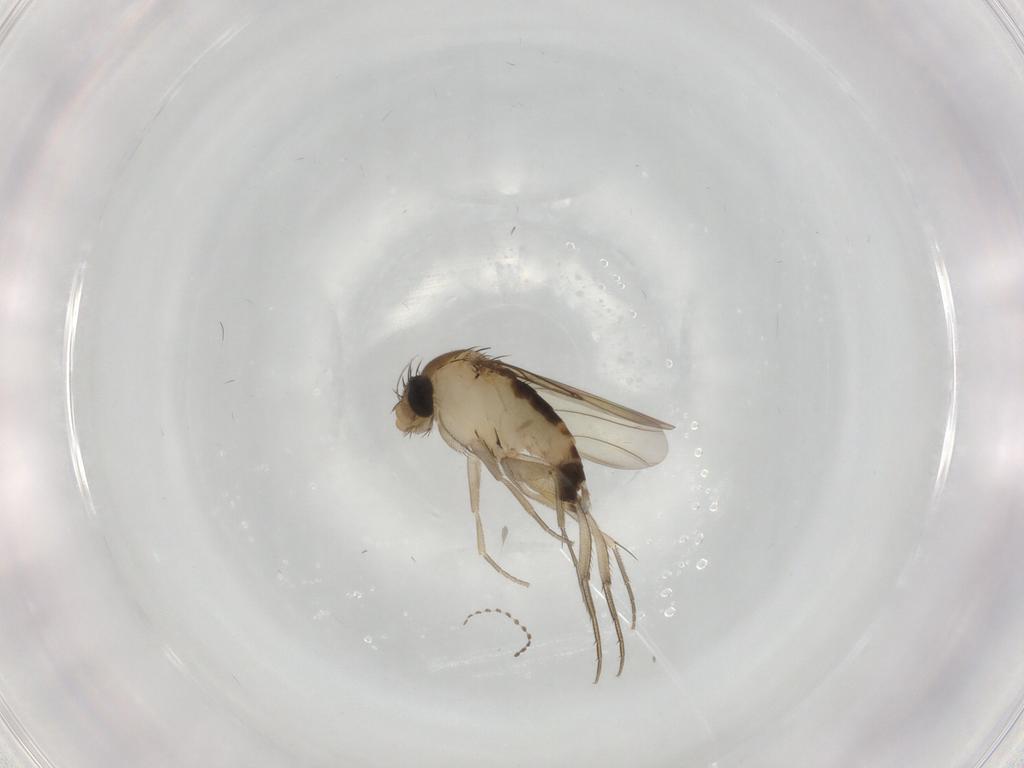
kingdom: Animalia
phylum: Arthropoda
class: Insecta
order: Diptera
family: Phoridae
